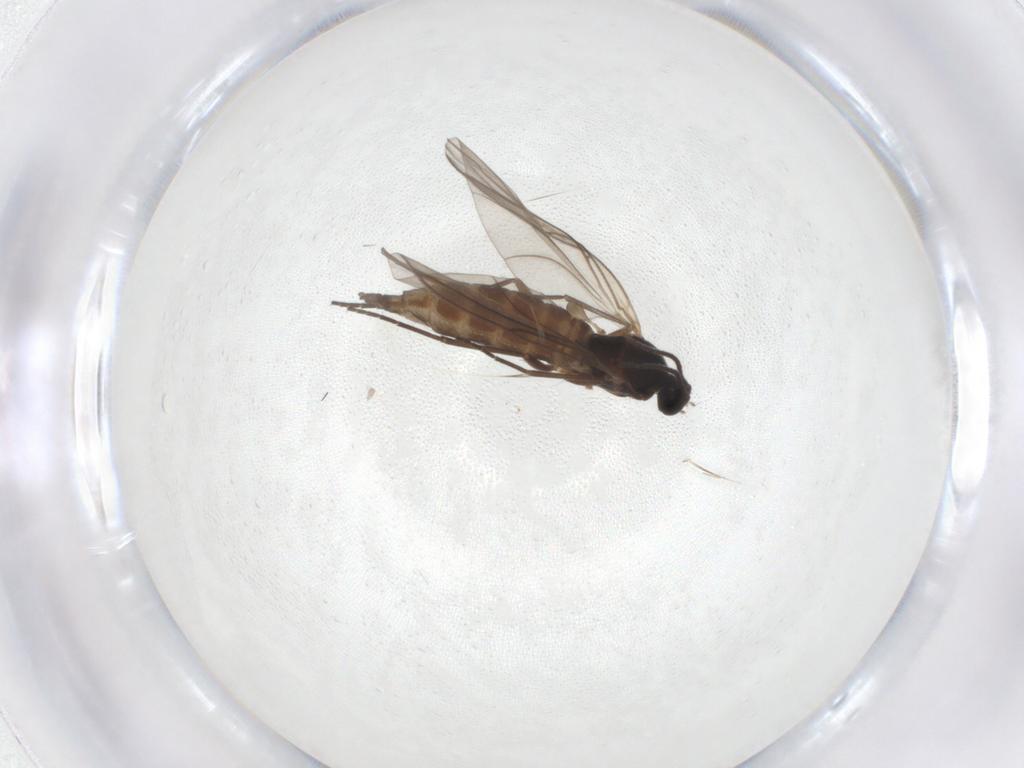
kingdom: Animalia
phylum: Arthropoda
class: Insecta
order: Diptera
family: Sciaridae
